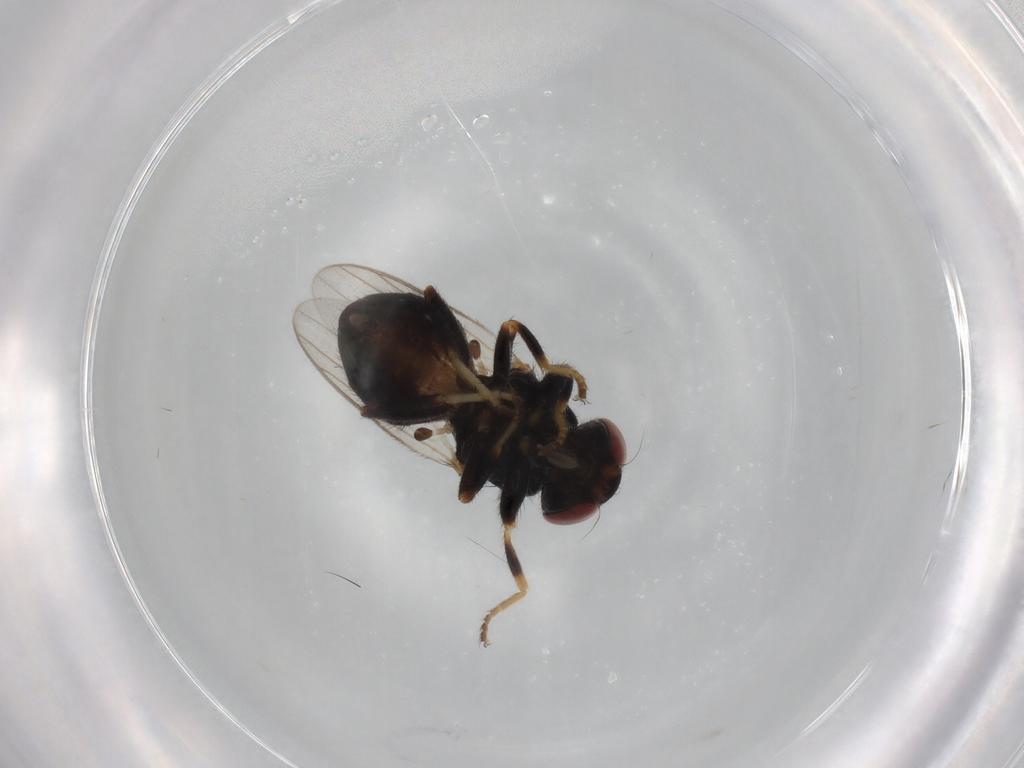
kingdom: Animalia
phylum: Arthropoda
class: Insecta
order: Diptera
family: Chloropidae
